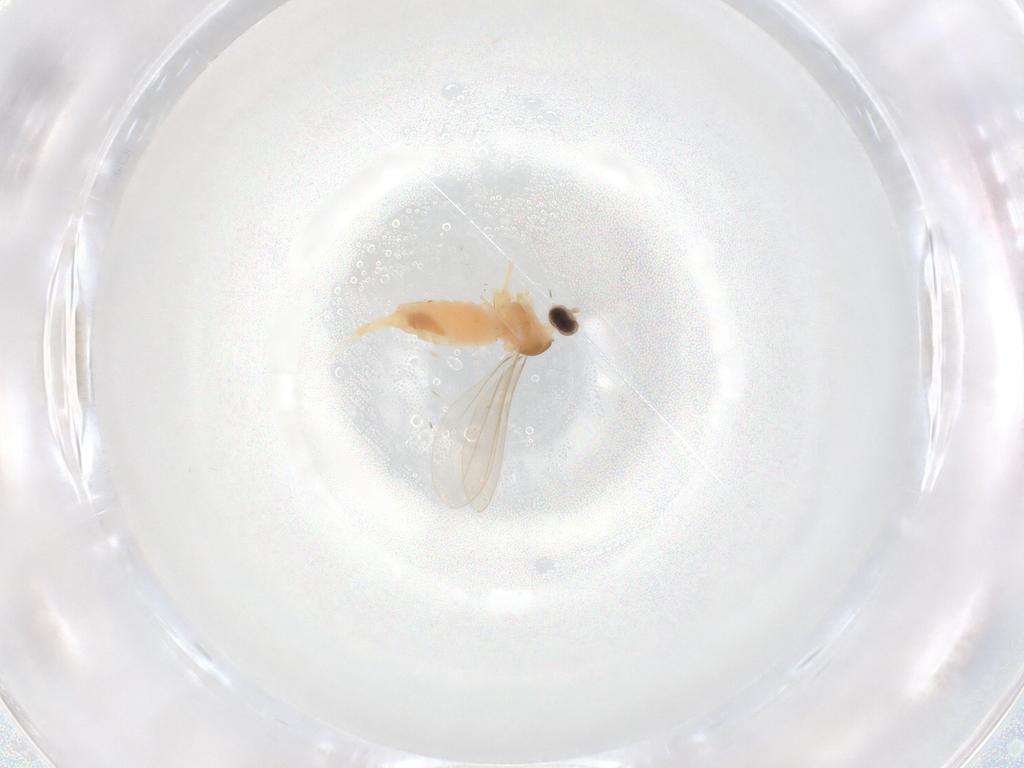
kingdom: Animalia
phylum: Arthropoda
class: Insecta
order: Diptera
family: Cecidomyiidae
